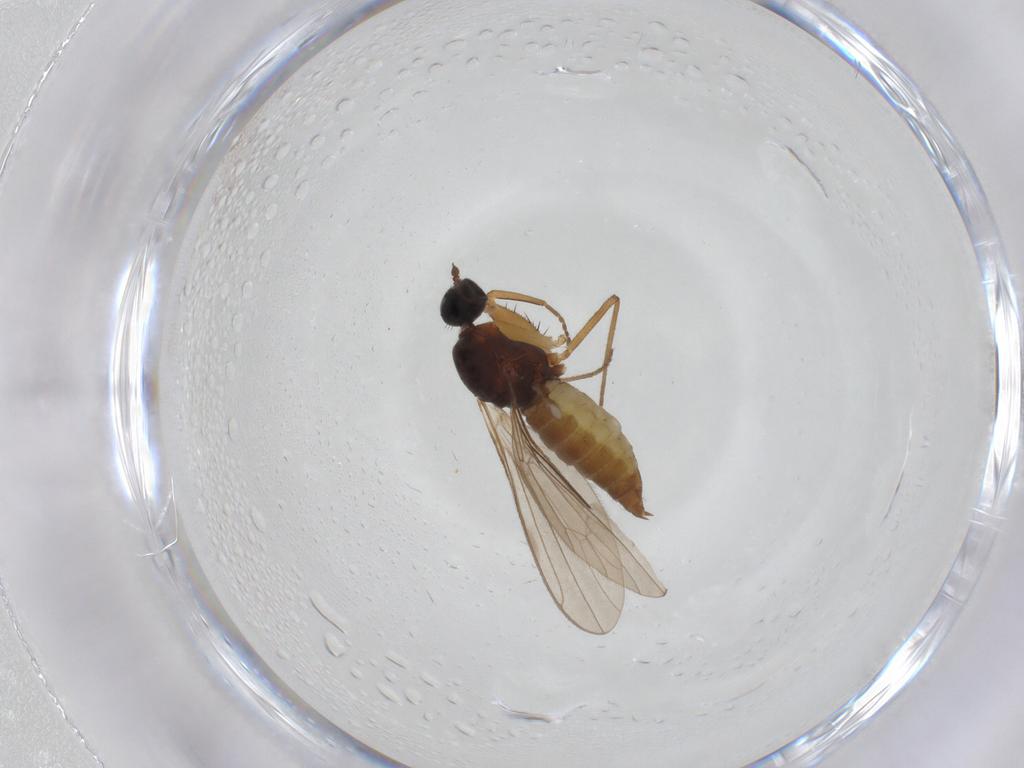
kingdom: Animalia
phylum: Arthropoda
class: Insecta
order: Diptera
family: Empididae
